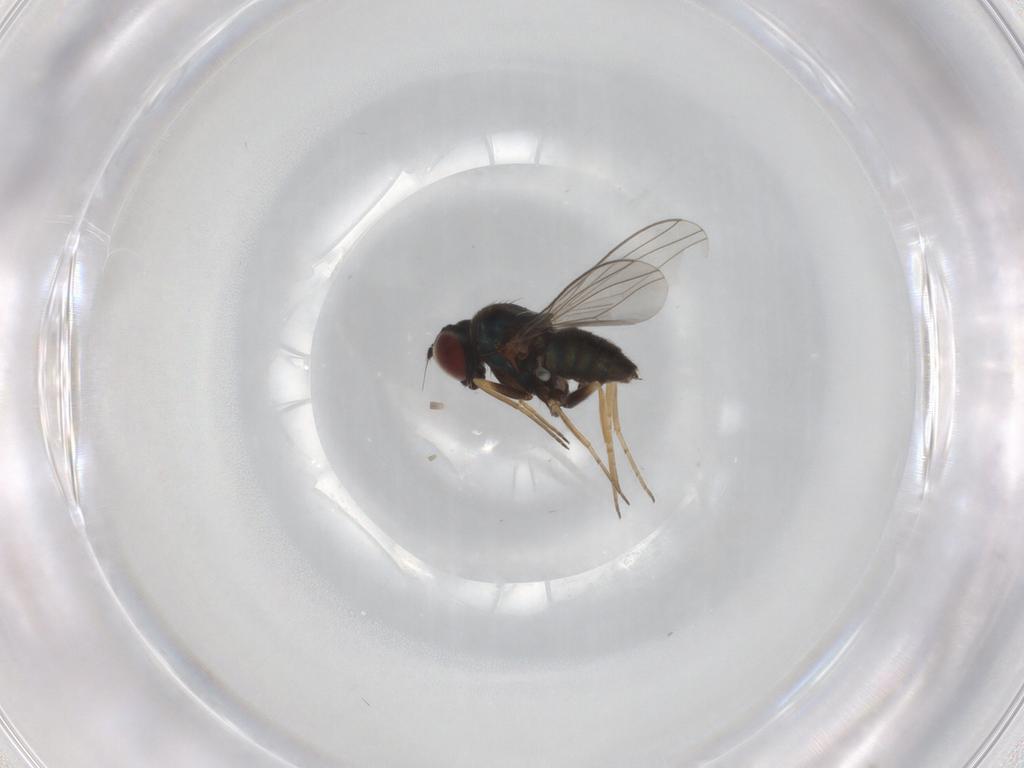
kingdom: Animalia
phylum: Arthropoda
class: Insecta
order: Diptera
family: Dolichopodidae
